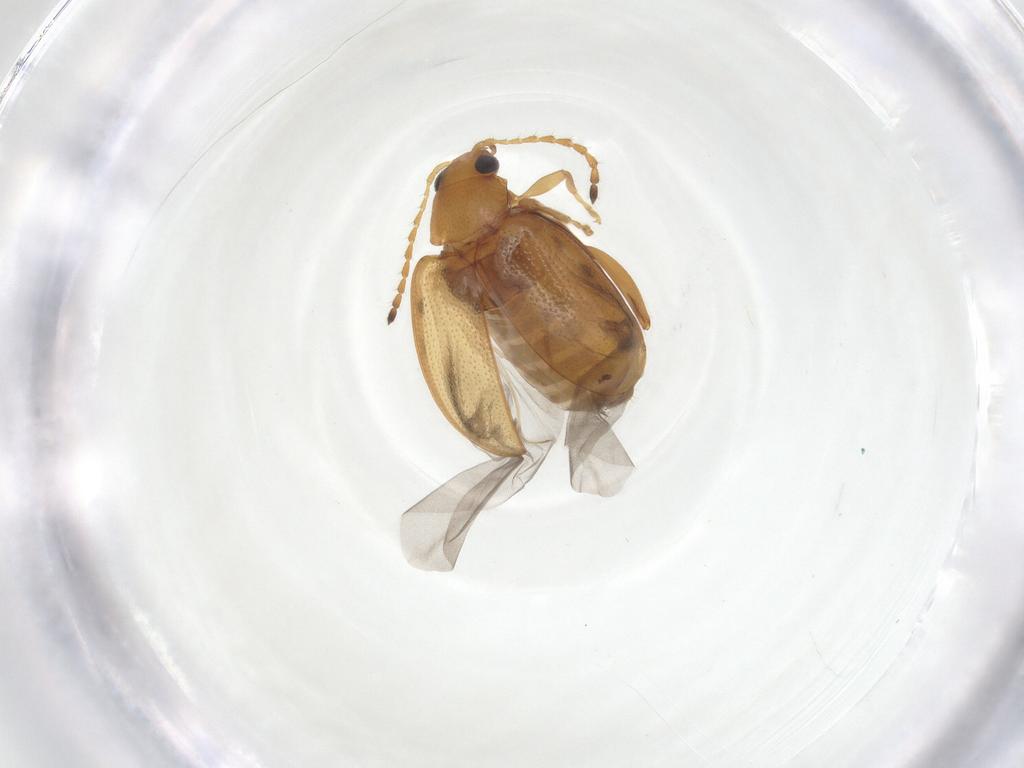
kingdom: Animalia
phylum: Arthropoda
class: Insecta
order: Coleoptera
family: Chrysomelidae
